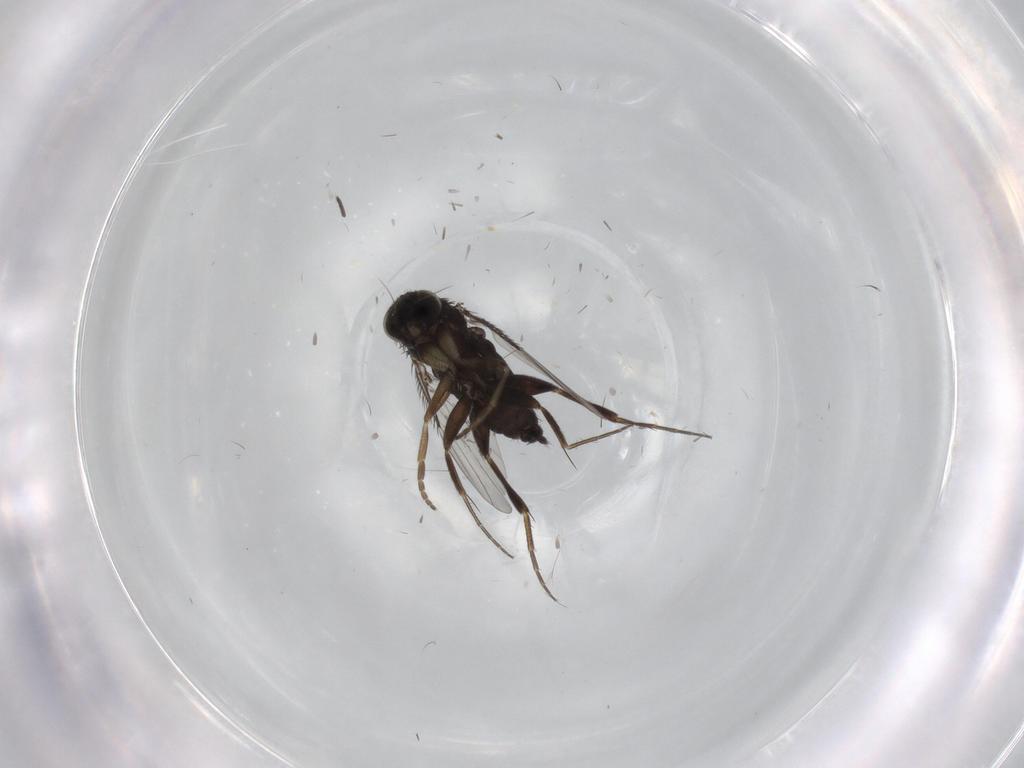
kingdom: Animalia
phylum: Arthropoda
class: Insecta
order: Diptera
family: Phoridae
